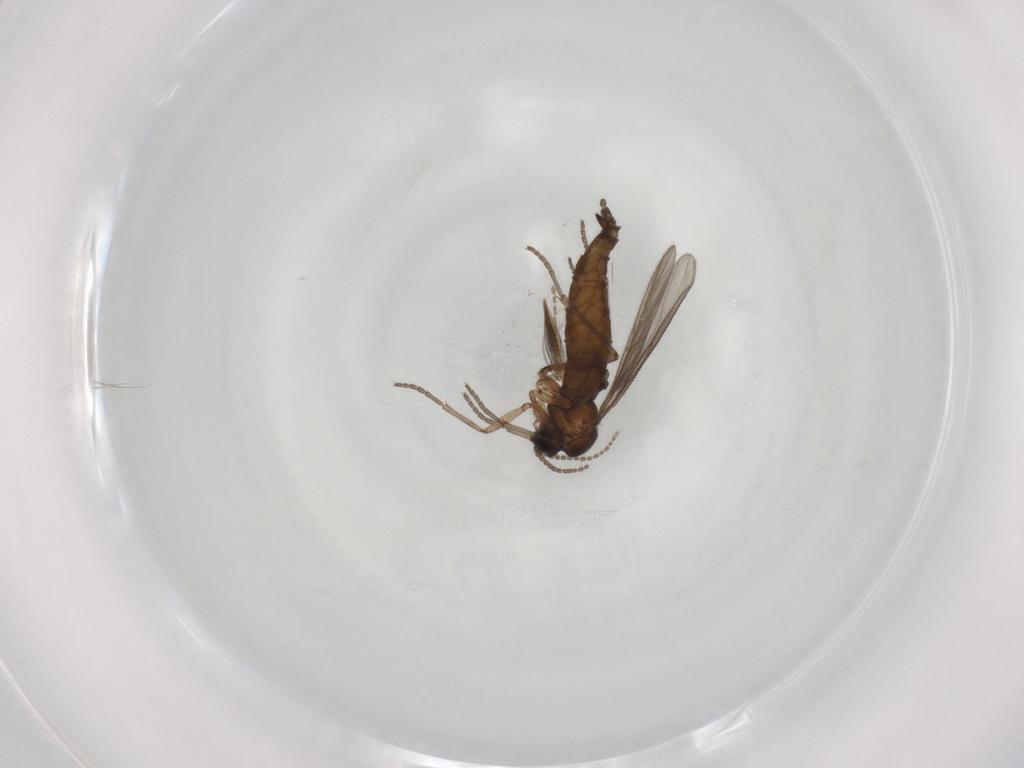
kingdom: Animalia
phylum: Arthropoda
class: Insecta
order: Diptera
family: Sciaridae
